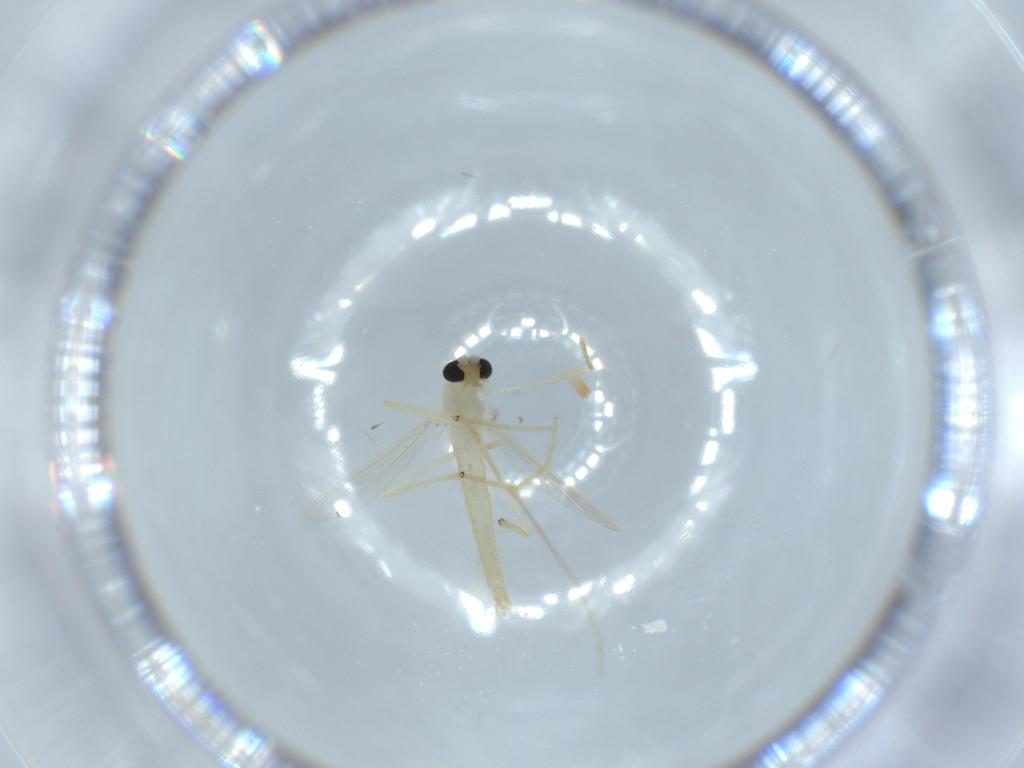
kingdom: Animalia
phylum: Arthropoda
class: Insecta
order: Diptera
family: Chironomidae
